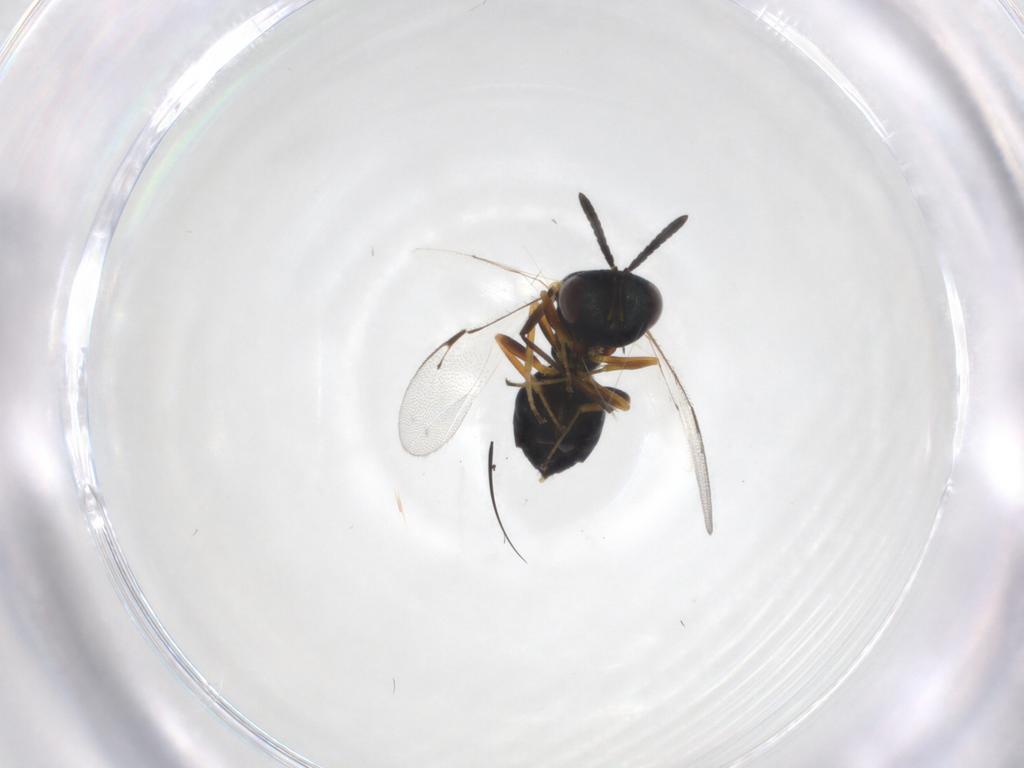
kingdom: Animalia
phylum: Arthropoda
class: Insecta
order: Hymenoptera
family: Pteromalidae
